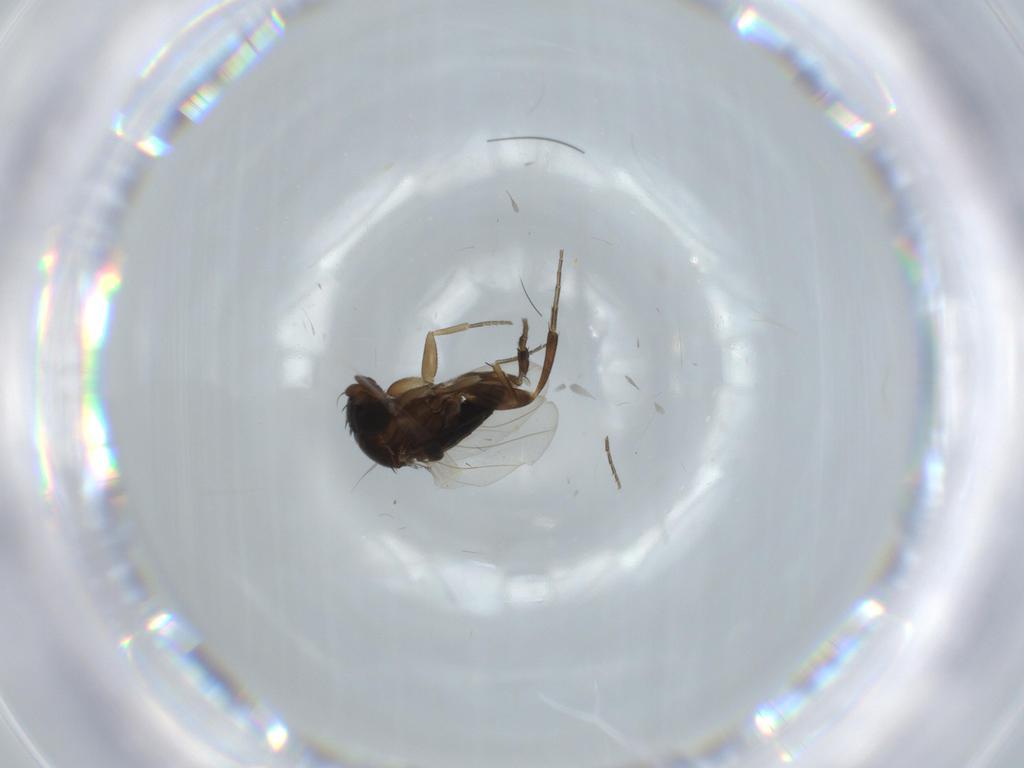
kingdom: Animalia
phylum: Arthropoda
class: Insecta
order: Diptera
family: Phoridae
